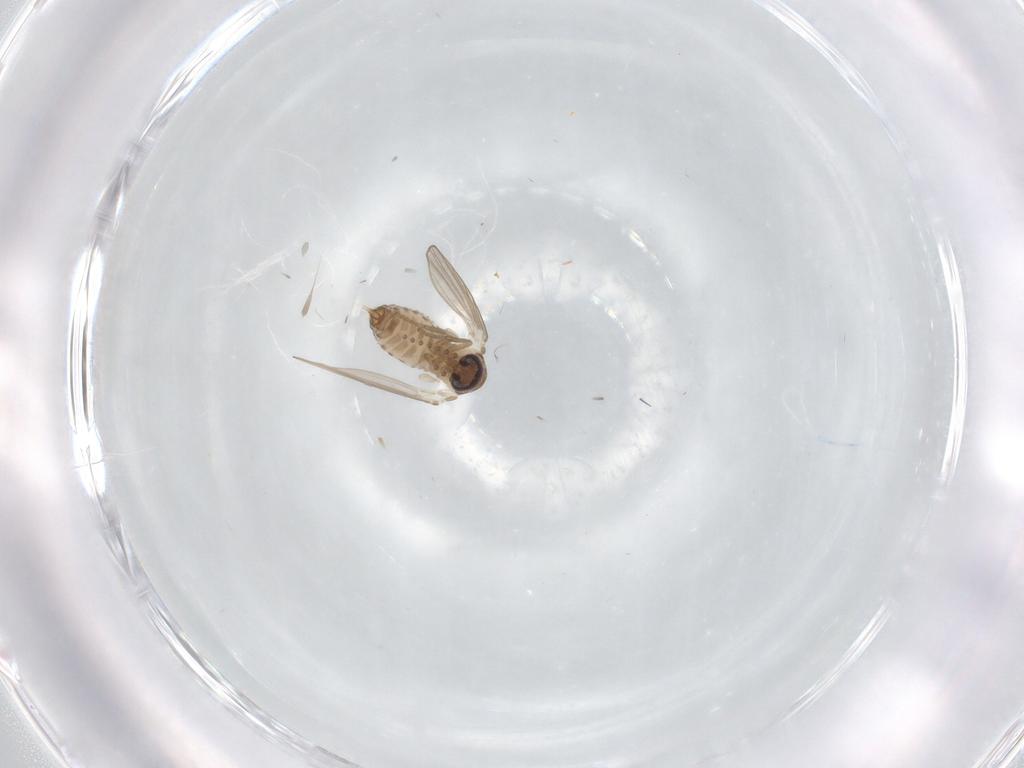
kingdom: Animalia
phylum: Arthropoda
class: Insecta
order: Diptera
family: Psychodidae
